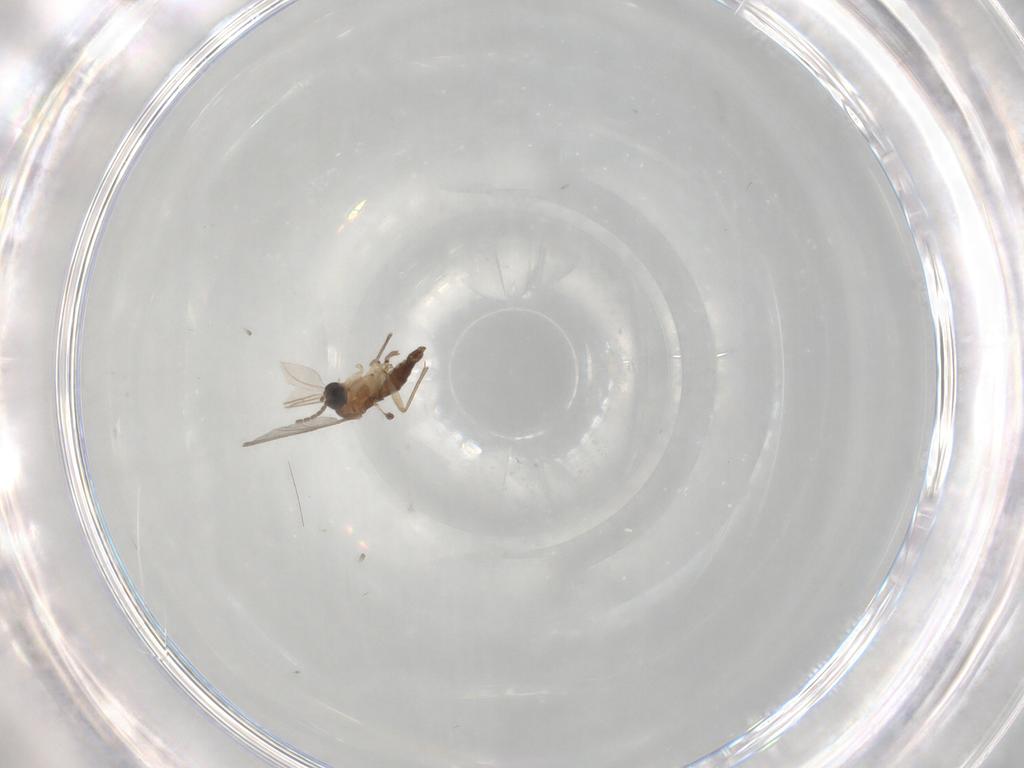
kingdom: Animalia
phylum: Arthropoda
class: Insecta
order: Diptera
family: Sciaridae
